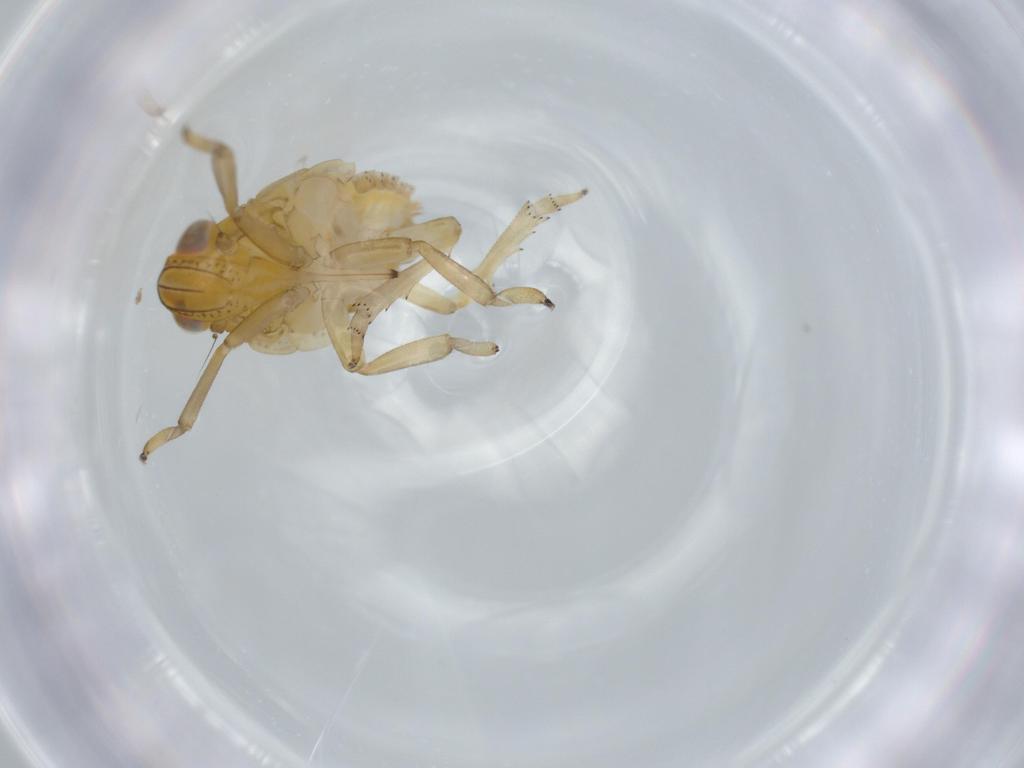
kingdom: Animalia
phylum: Arthropoda
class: Insecta
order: Hemiptera
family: Issidae
